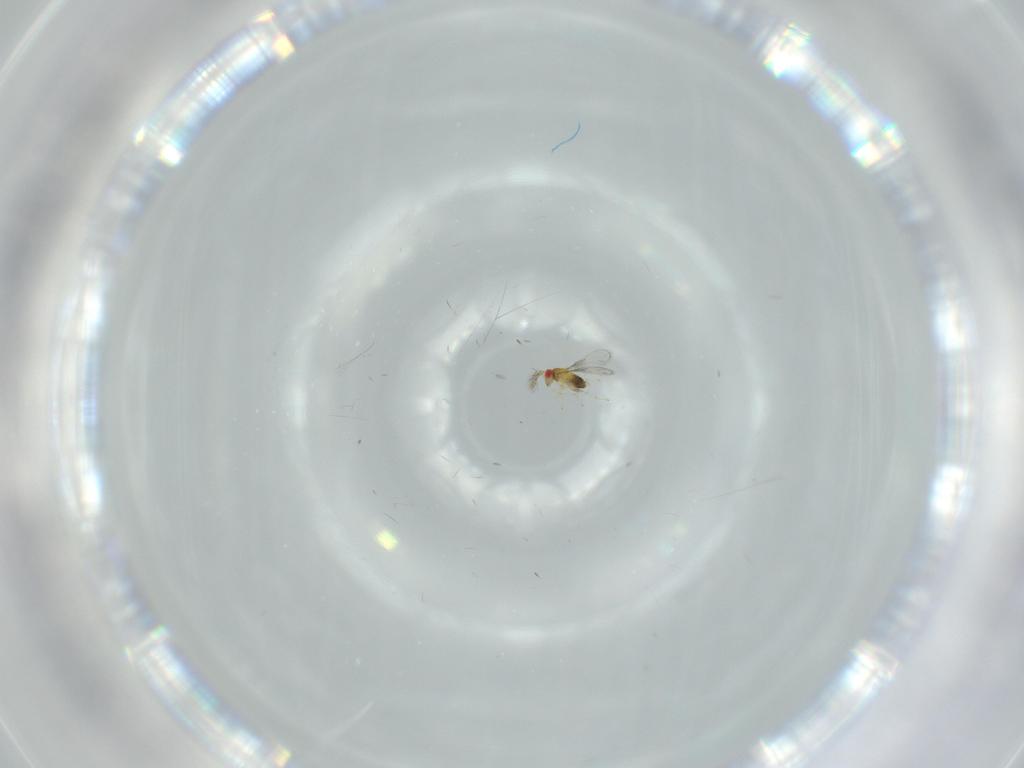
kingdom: Animalia
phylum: Arthropoda
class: Insecta
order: Hymenoptera
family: Trichogrammatidae
